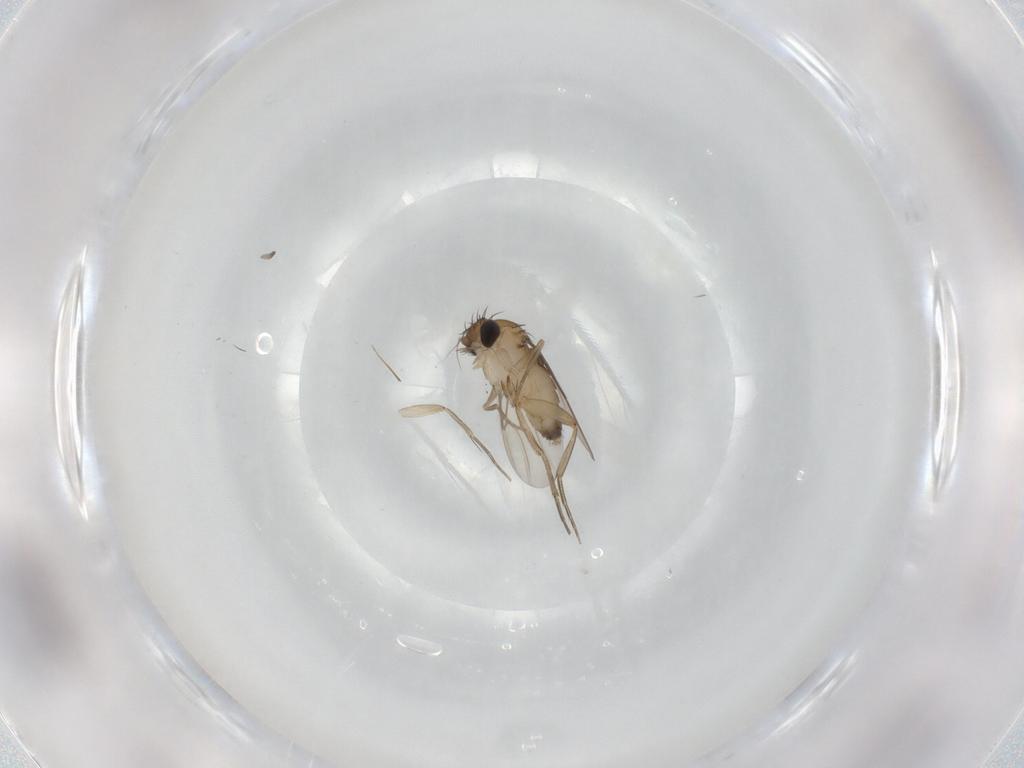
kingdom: Animalia
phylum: Arthropoda
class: Insecta
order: Diptera
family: Phoridae
